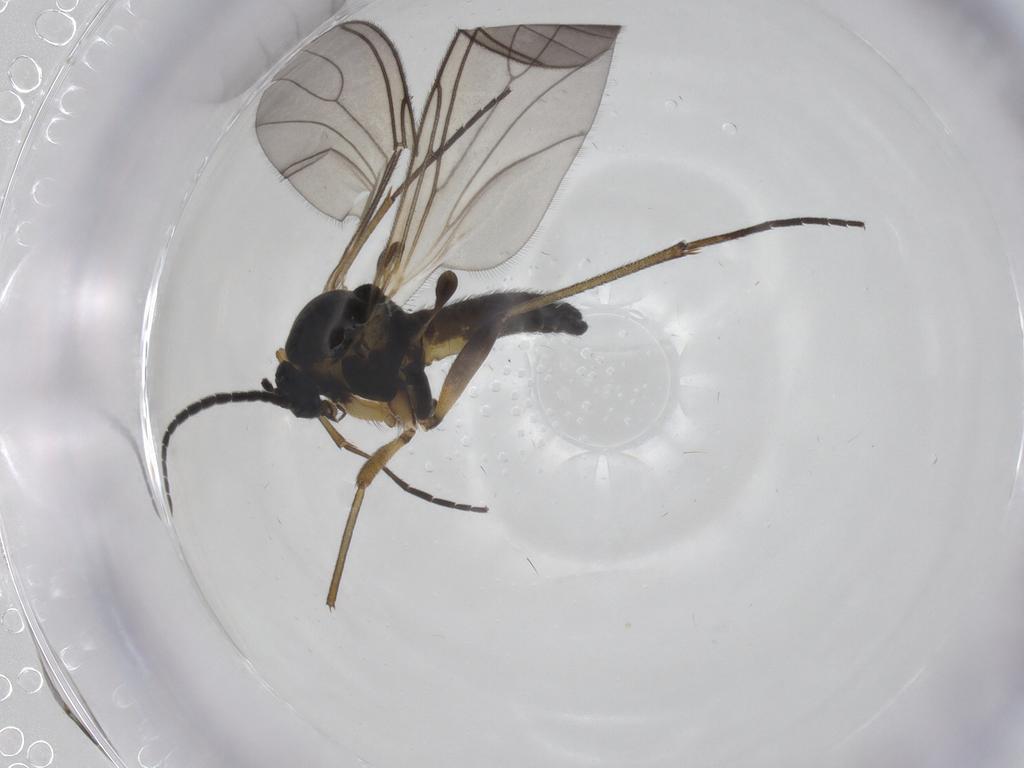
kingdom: Animalia
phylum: Arthropoda
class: Insecta
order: Diptera
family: Sciaridae
